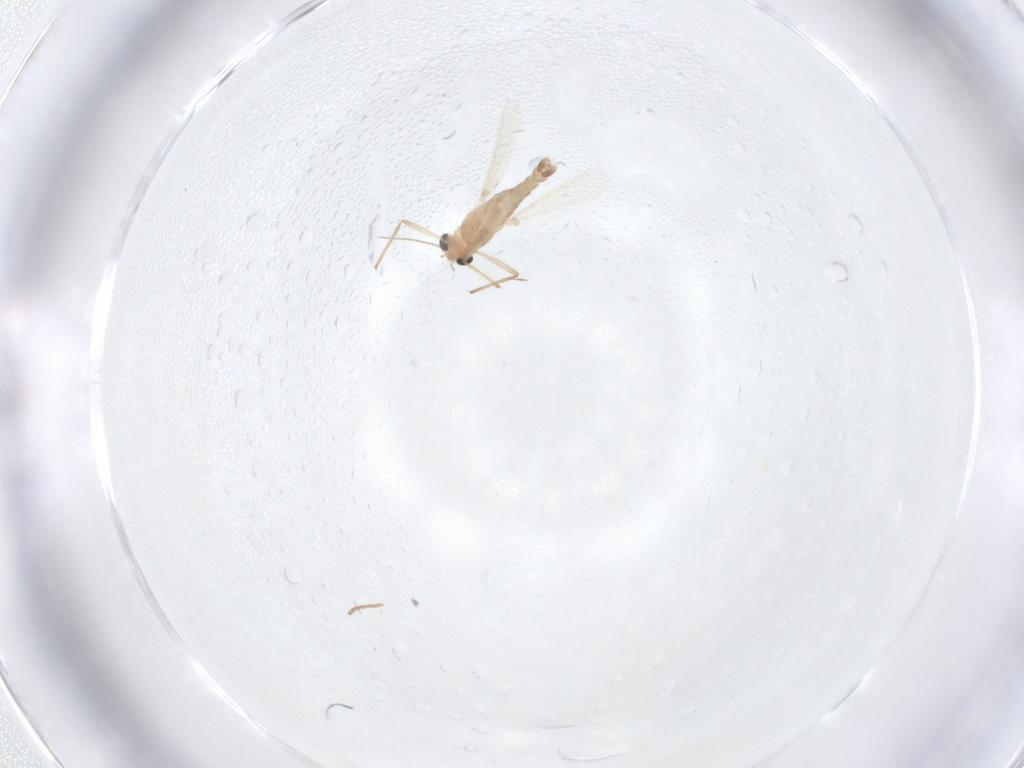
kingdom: Animalia
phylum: Arthropoda
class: Insecta
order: Diptera
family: Chironomidae
